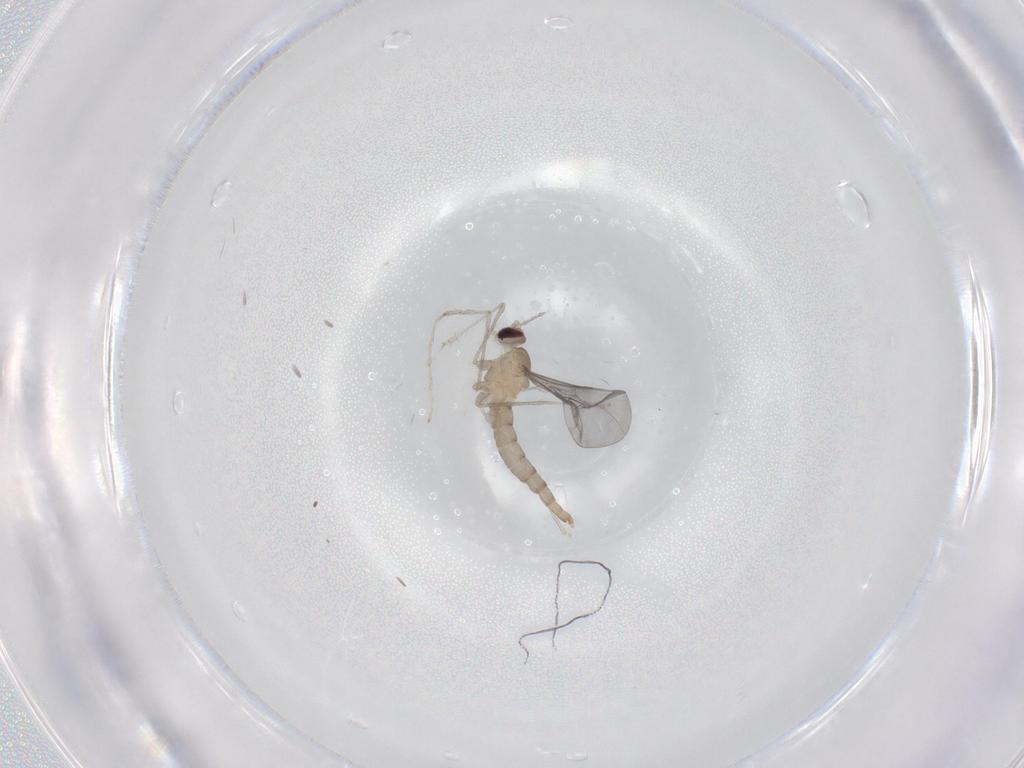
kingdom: Animalia
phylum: Arthropoda
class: Insecta
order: Diptera
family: Cecidomyiidae
